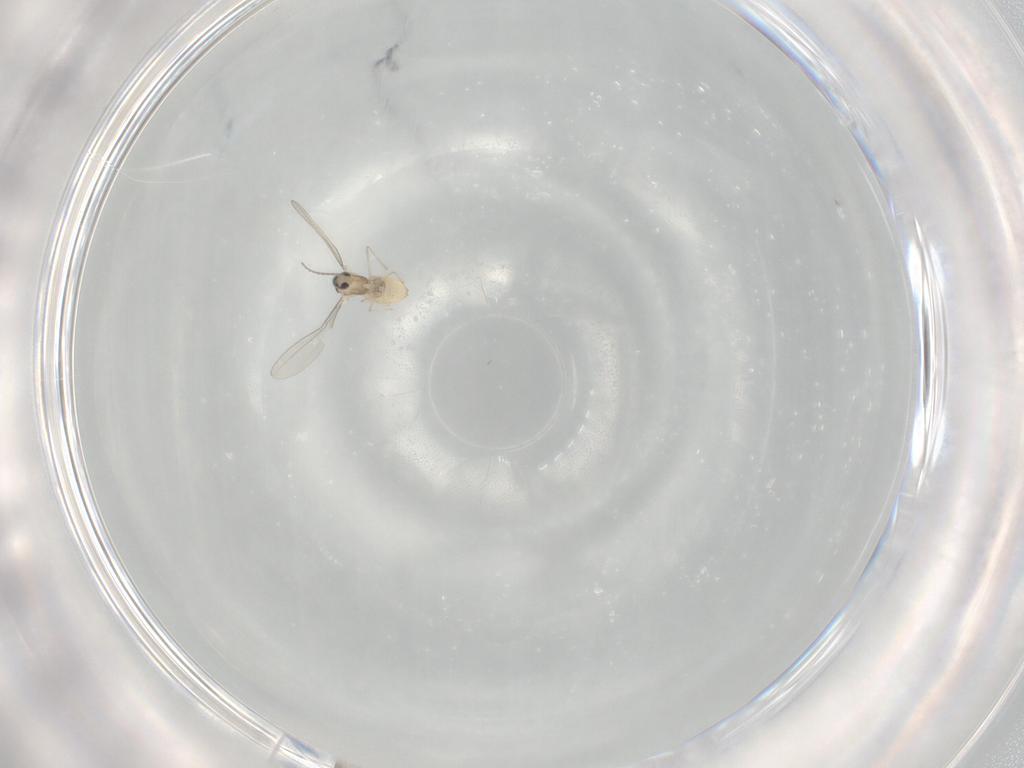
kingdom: Animalia
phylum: Arthropoda
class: Insecta
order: Diptera
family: Cecidomyiidae
